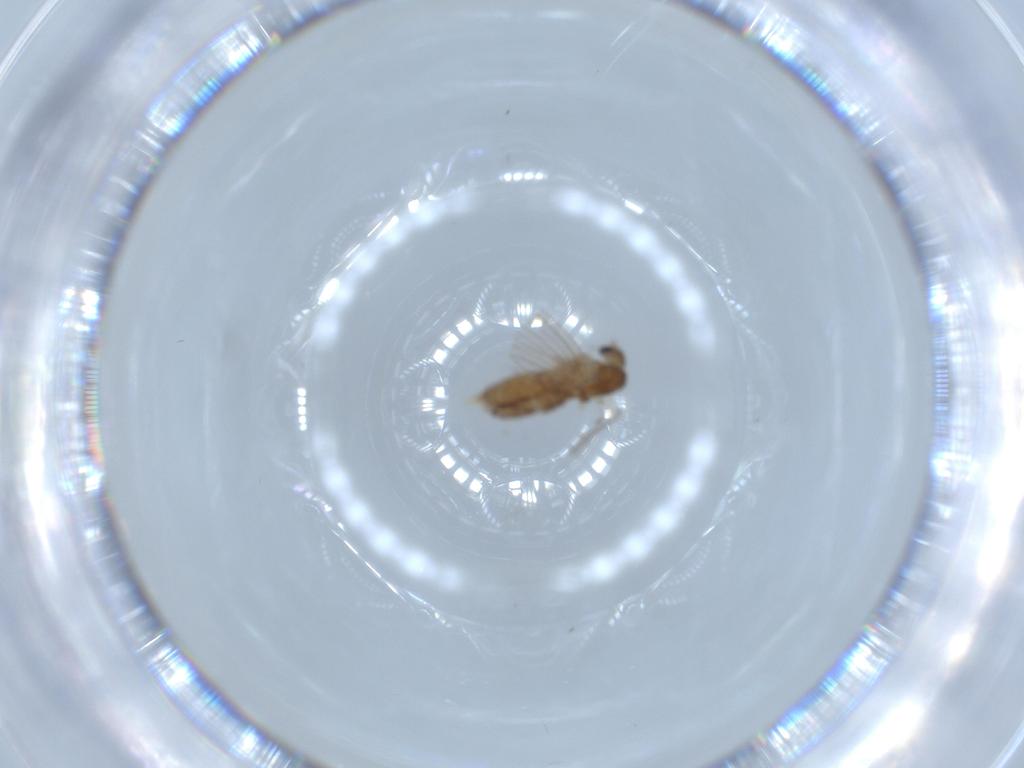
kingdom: Animalia
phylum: Arthropoda
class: Insecta
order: Diptera
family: Psychodidae
